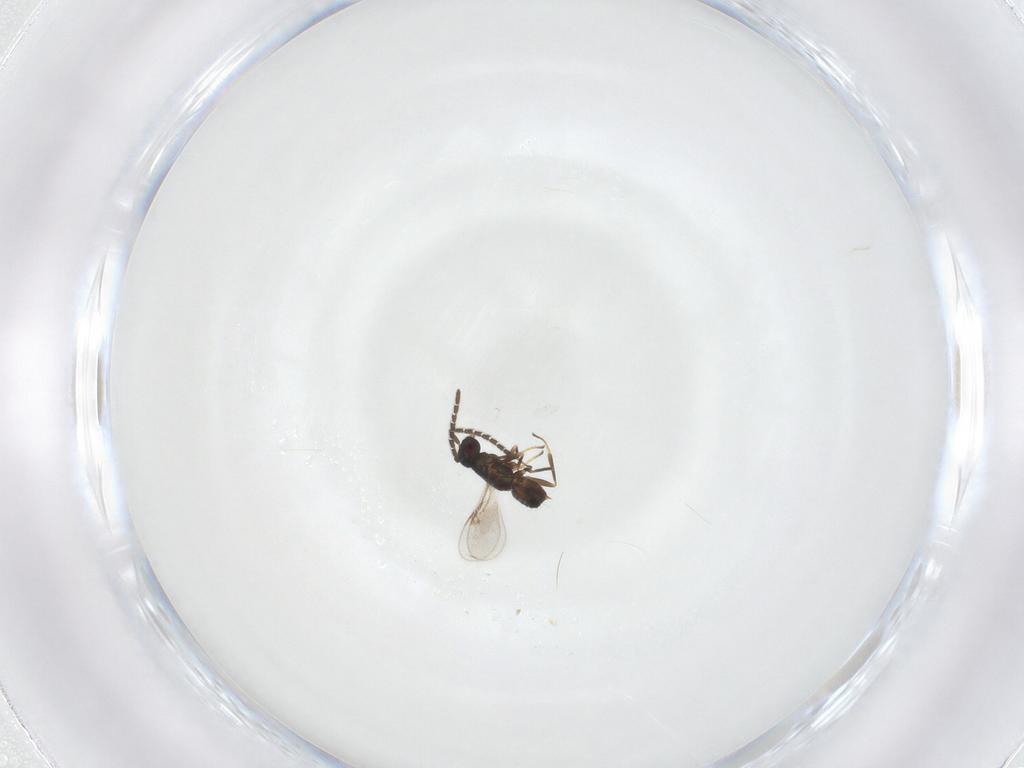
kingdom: Animalia
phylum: Arthropoda
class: Insecta
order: Hymenoptera
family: Encyrtidae
